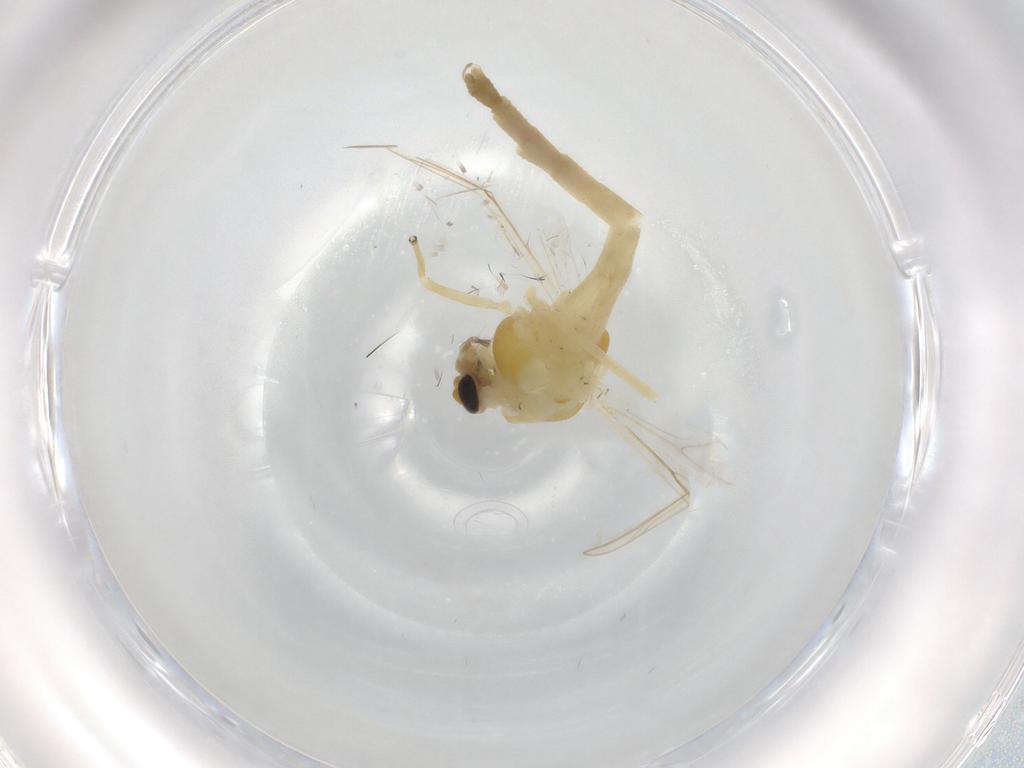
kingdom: Animalia
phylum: Arthropoda
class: Insecta
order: Diptera
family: Chironomidae
